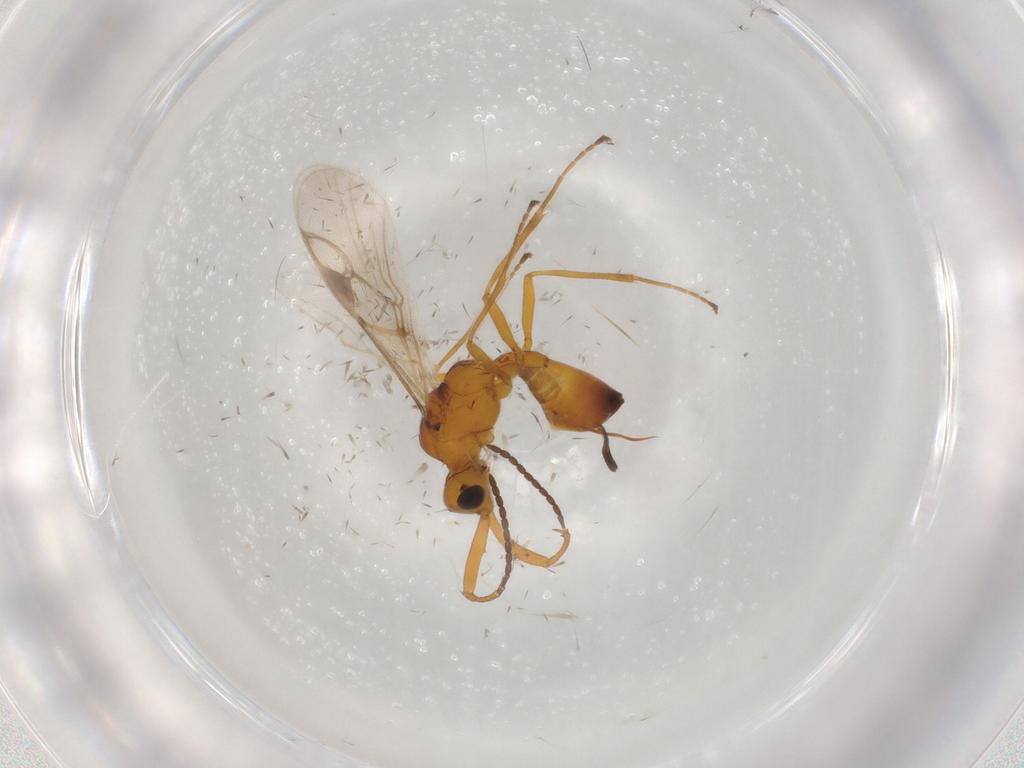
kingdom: Animalia
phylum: Arthropoda
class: Insecta
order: Hymenoptera
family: Braconidae
